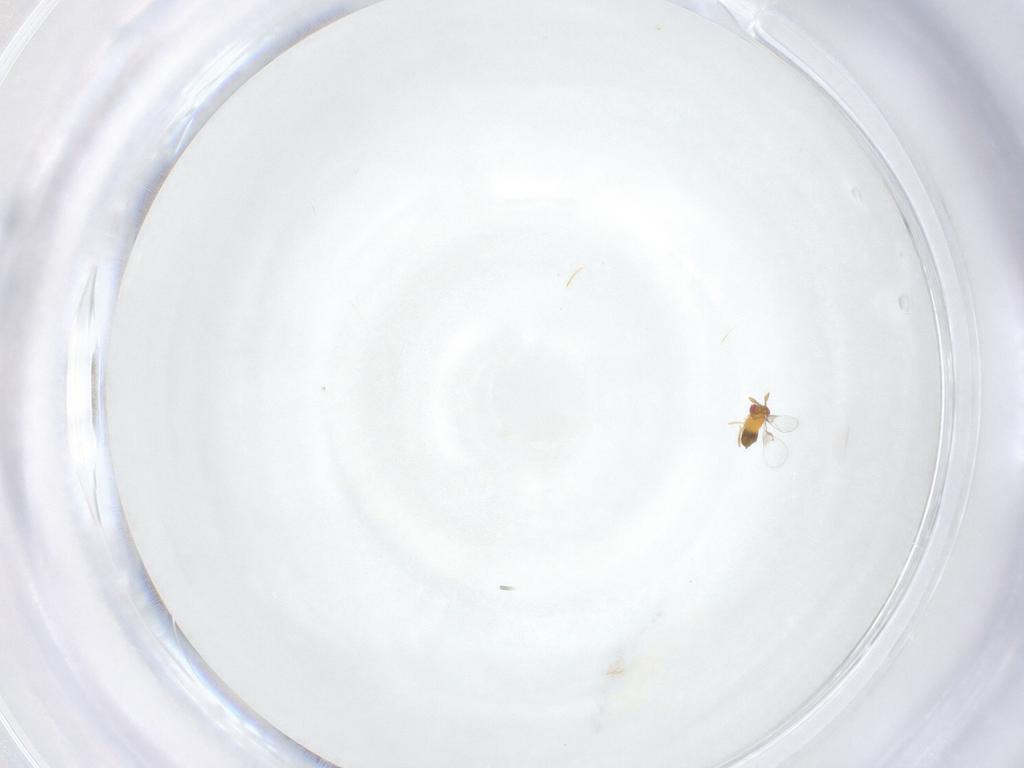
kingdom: Animalia
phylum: Arthropoda
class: Insecta
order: Hymenoptera
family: Trichogrammatidae
